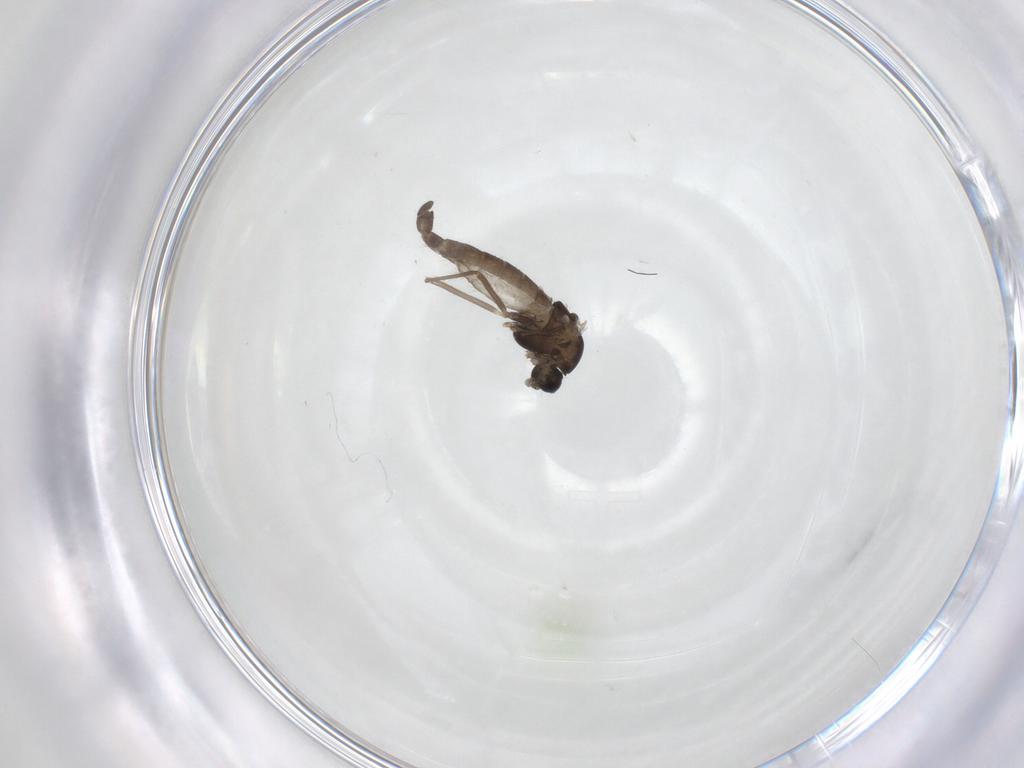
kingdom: Animalia
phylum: Arthropoda
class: Insecta
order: Diptera
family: Chironomidae
